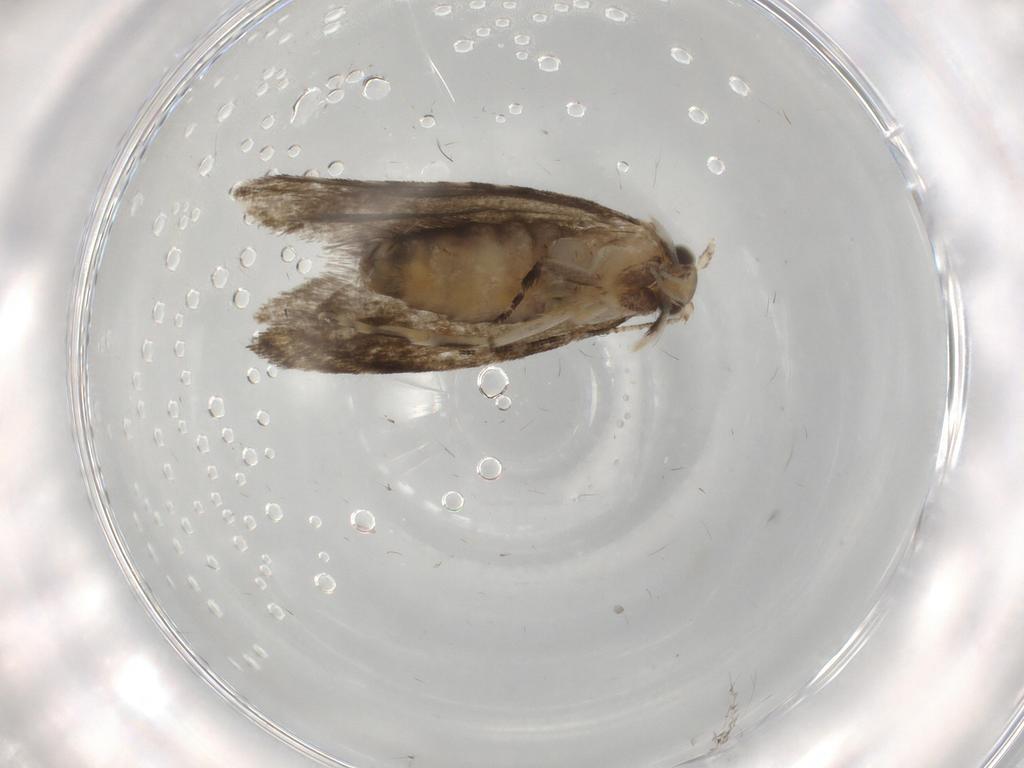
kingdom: Animalia
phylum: Arthropoda
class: Insecta
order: Lepidoptera
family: Tineidae
